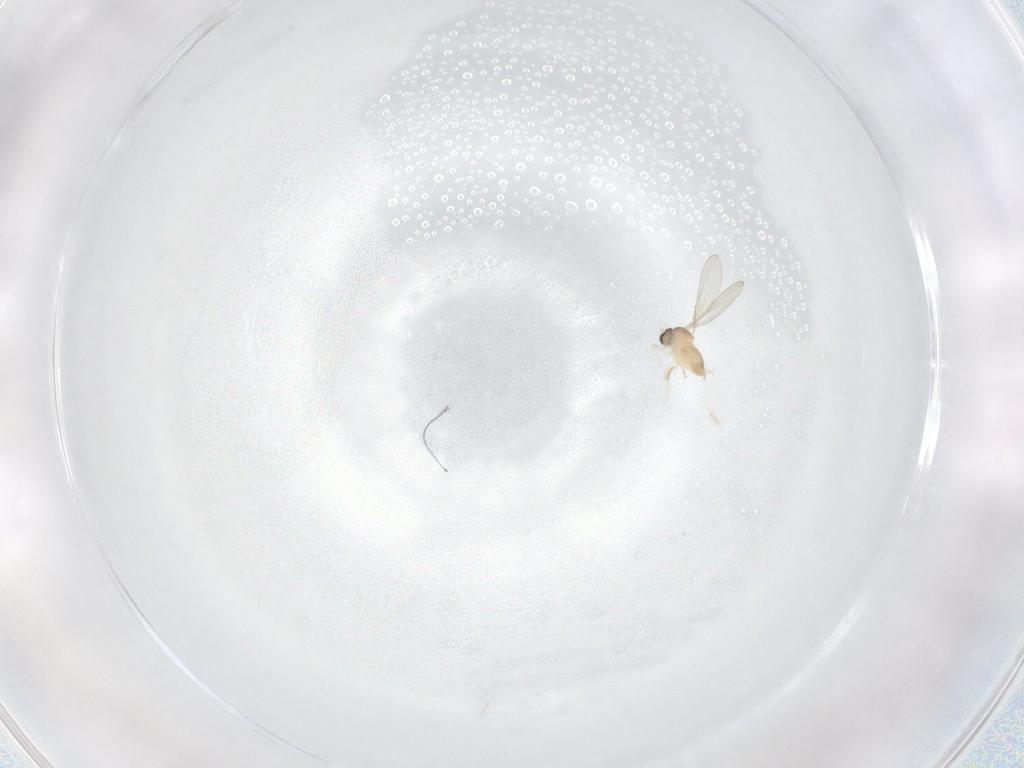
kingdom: Animalia
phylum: Arthropoda
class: Insecta
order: Diptera
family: Cecidomyiidae
